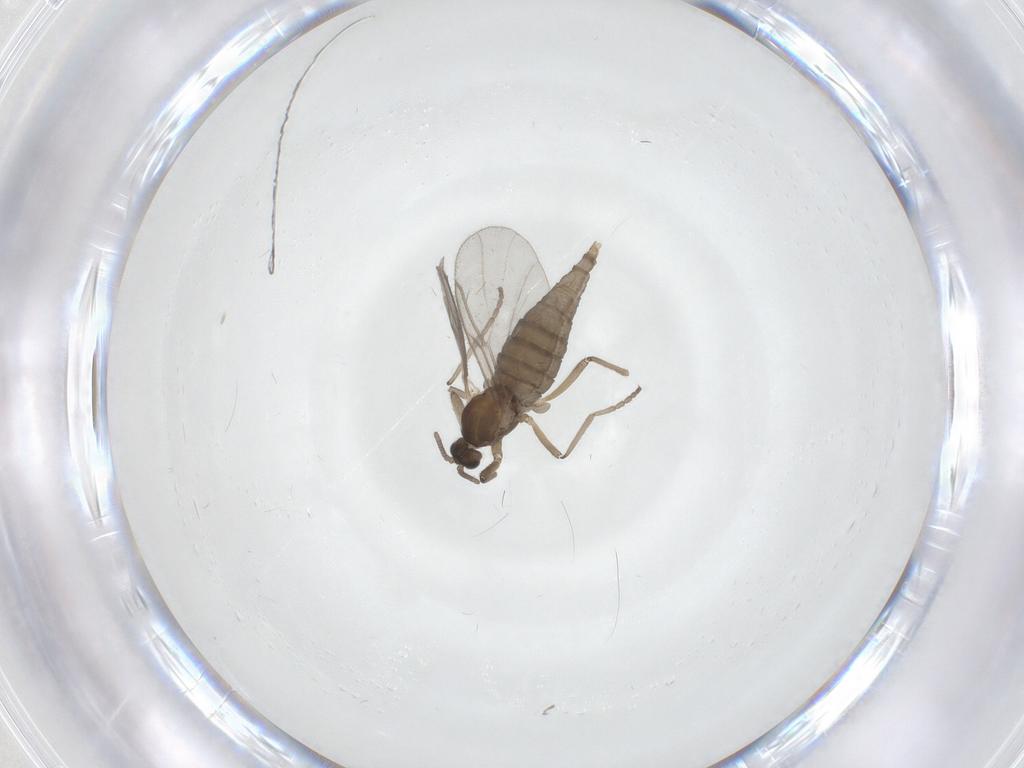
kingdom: Animalia
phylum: Arthropoda
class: Insecta
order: Diptera
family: Cecidomyiidae
